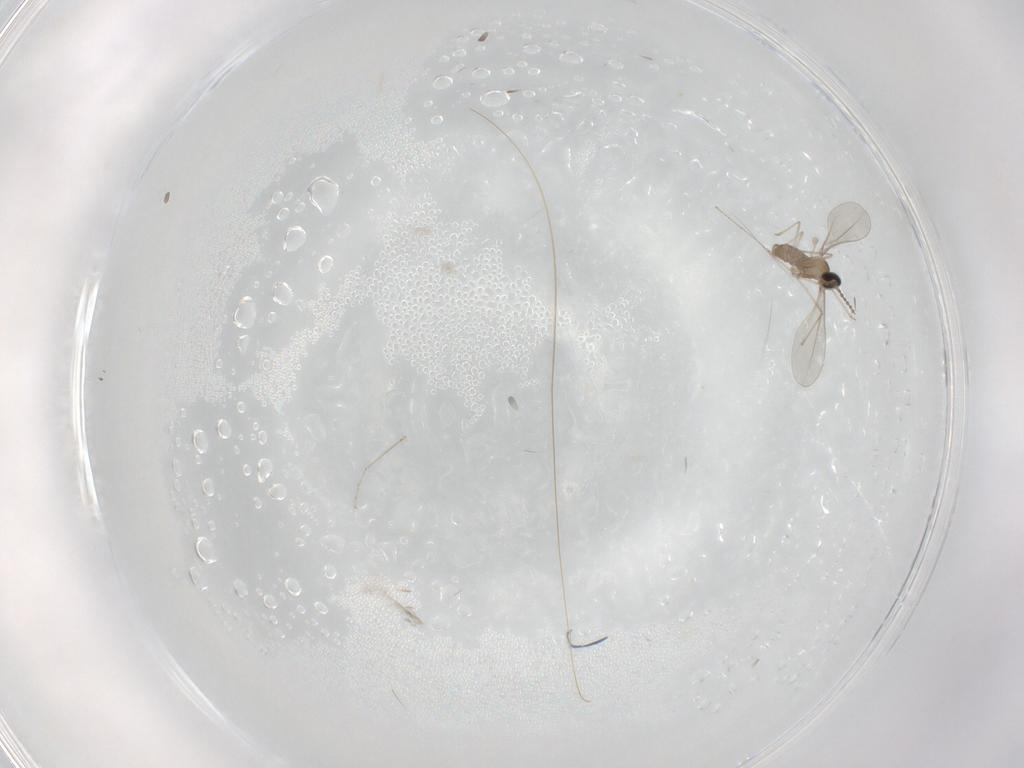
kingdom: Animalia
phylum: Arthropoda
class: Insecta
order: Diptera
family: Cecidomyiidae
